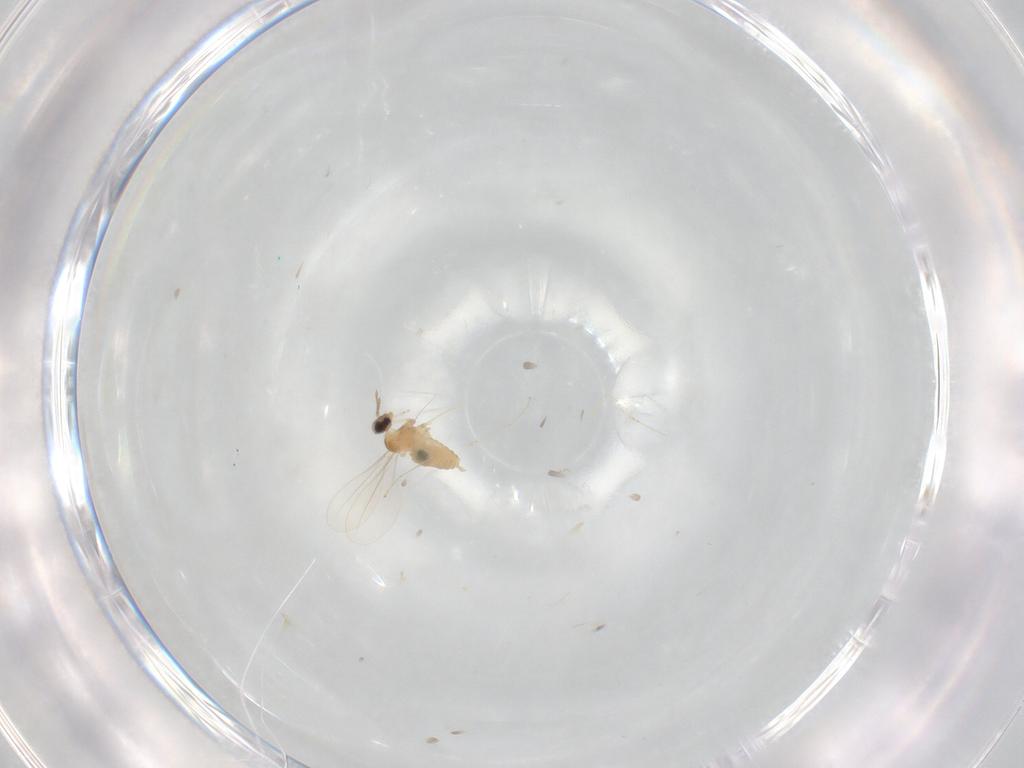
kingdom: Animalia
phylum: Arthropoda
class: Insecta
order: Diptera
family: Cecidomyiidae
